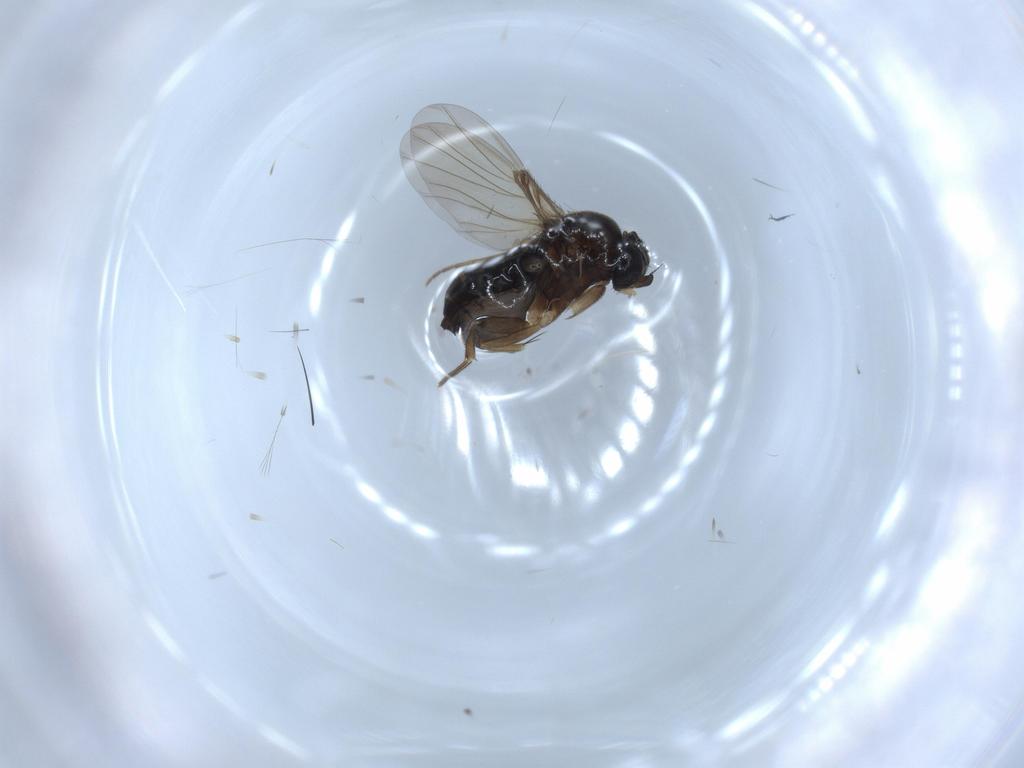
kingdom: Animalia
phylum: Arthropoda
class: Insecta
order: Diptera
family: Phoridae
